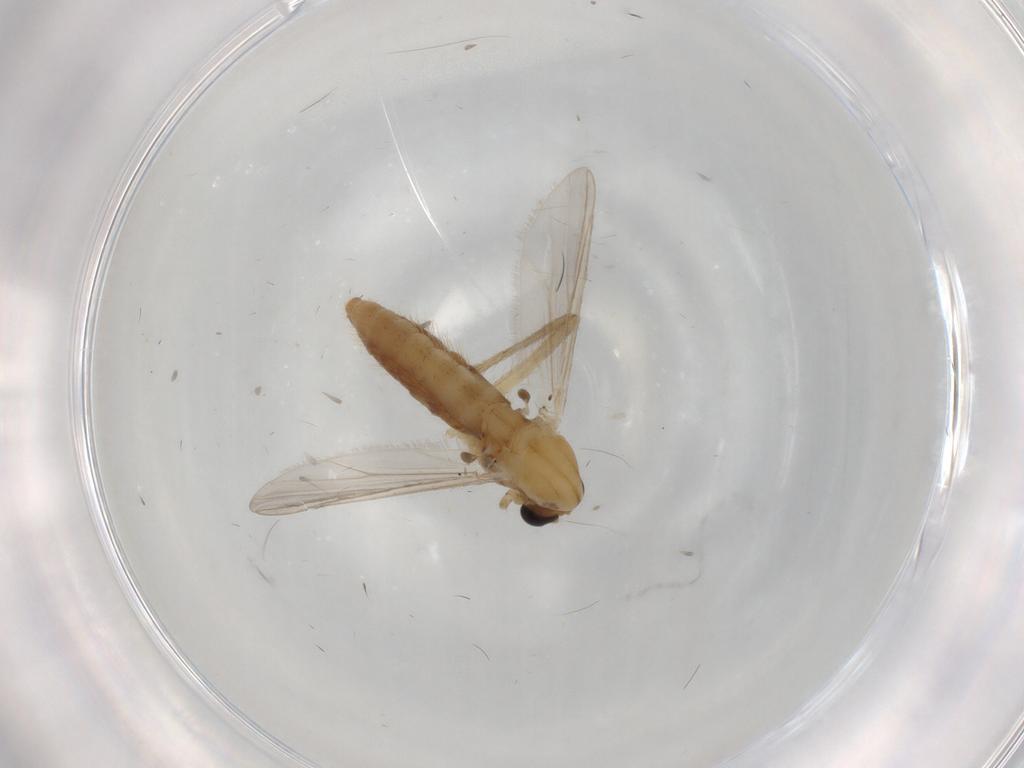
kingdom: Animalia
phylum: Arthropoda
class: Insecta
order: Diptera
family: Chironomidae
